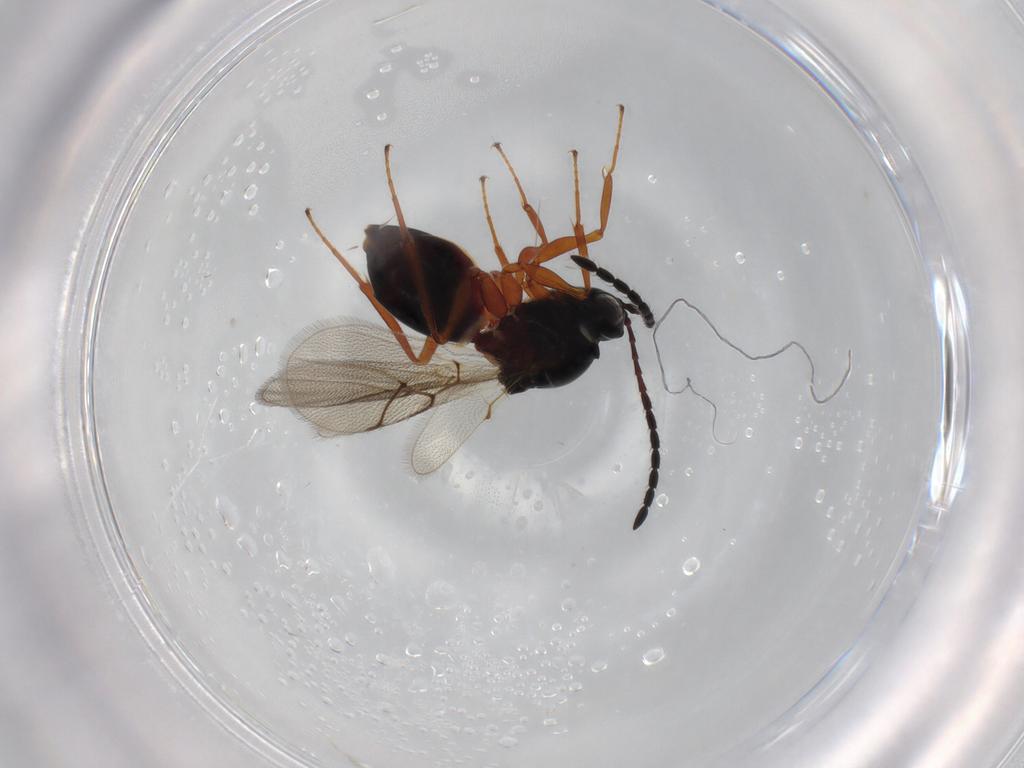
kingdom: Animalia
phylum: Arthropoda
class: Insecta
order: Hymenoptera
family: Figitidae
